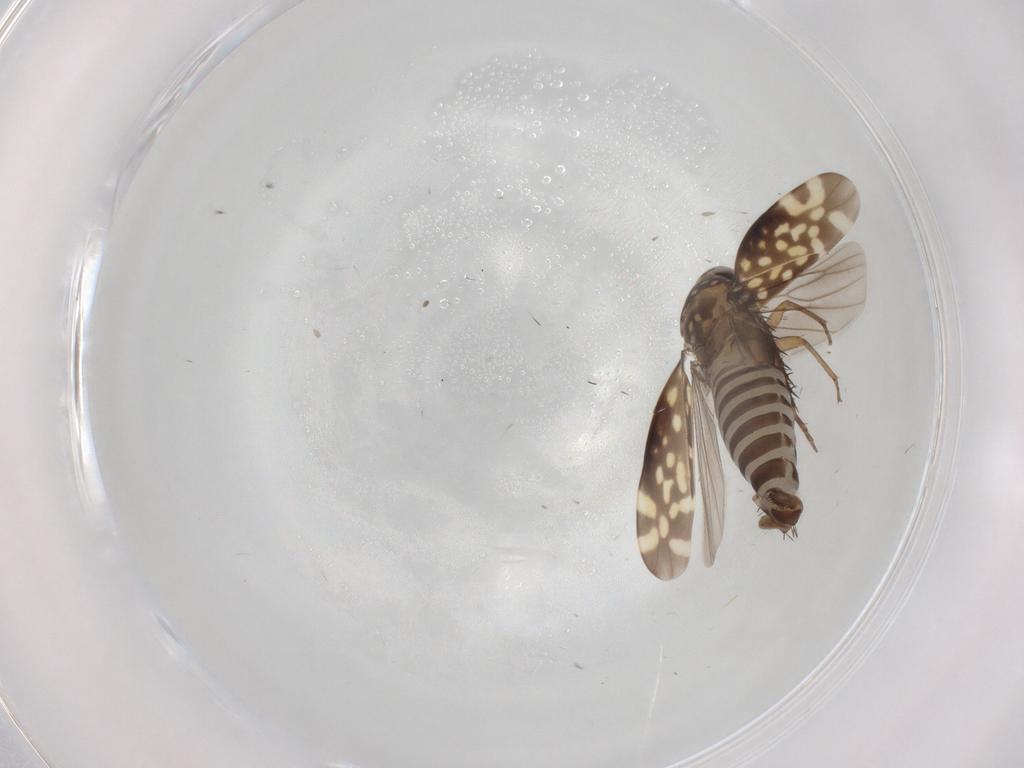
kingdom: Animalia
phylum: Arthropoda
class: Insecta
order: Hemiptera
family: Cicadellidae
